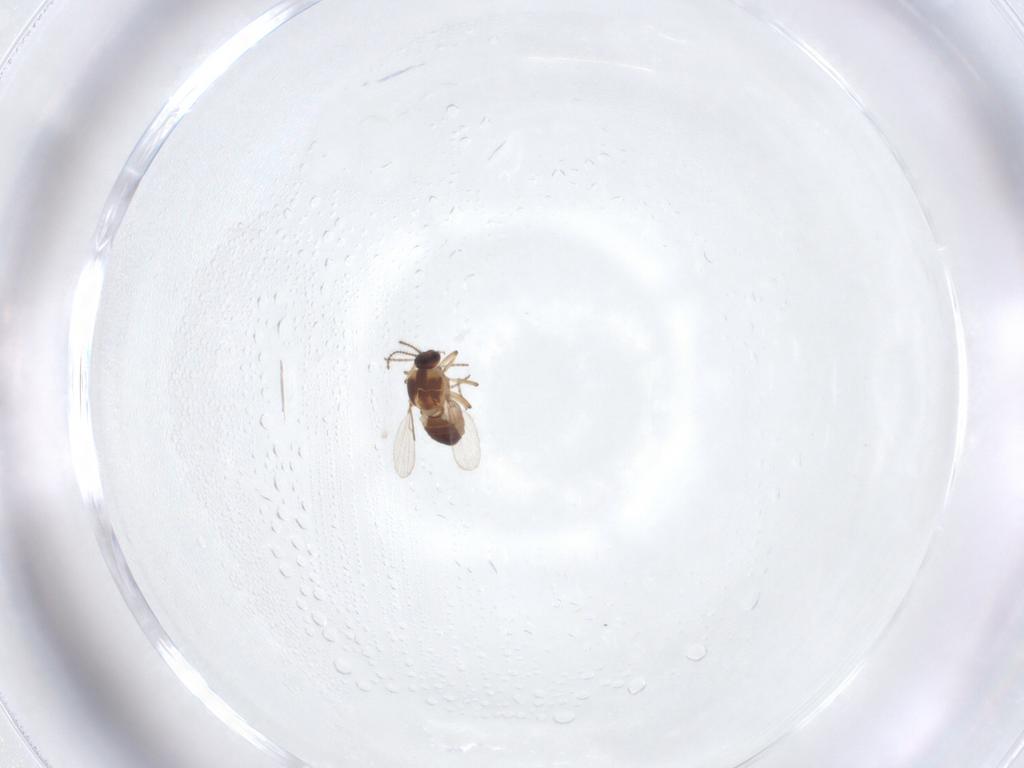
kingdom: Animalia
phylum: Arthropoda
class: Insecta
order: Diptera
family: Ceratopogonidae
